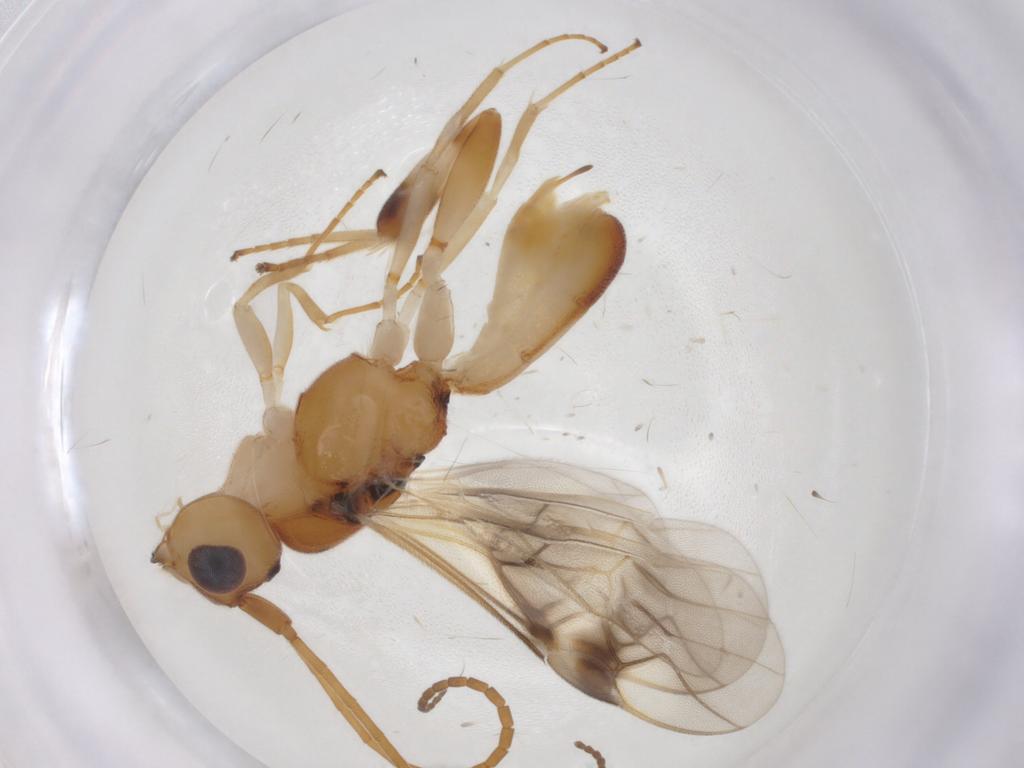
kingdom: Animalia
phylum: Arthropoda
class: Insecta
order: Hymenoptera
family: Braconidae
